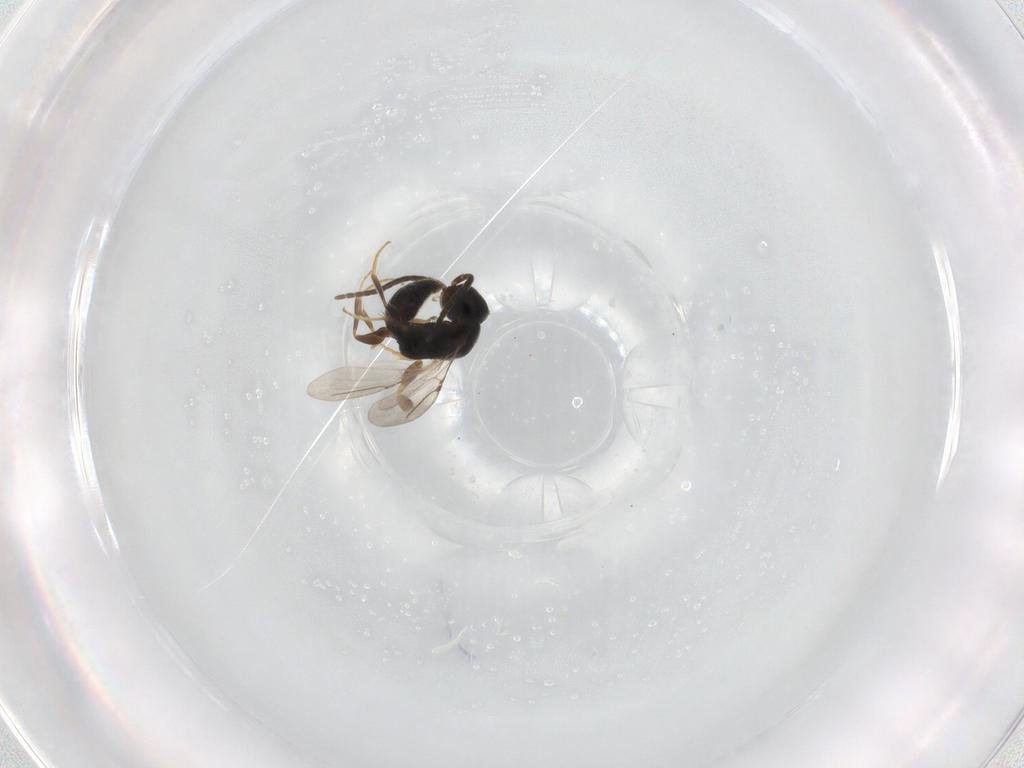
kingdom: Animalia
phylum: Arthropoda
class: Insecta
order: Hymenoptera
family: Bethylidae
